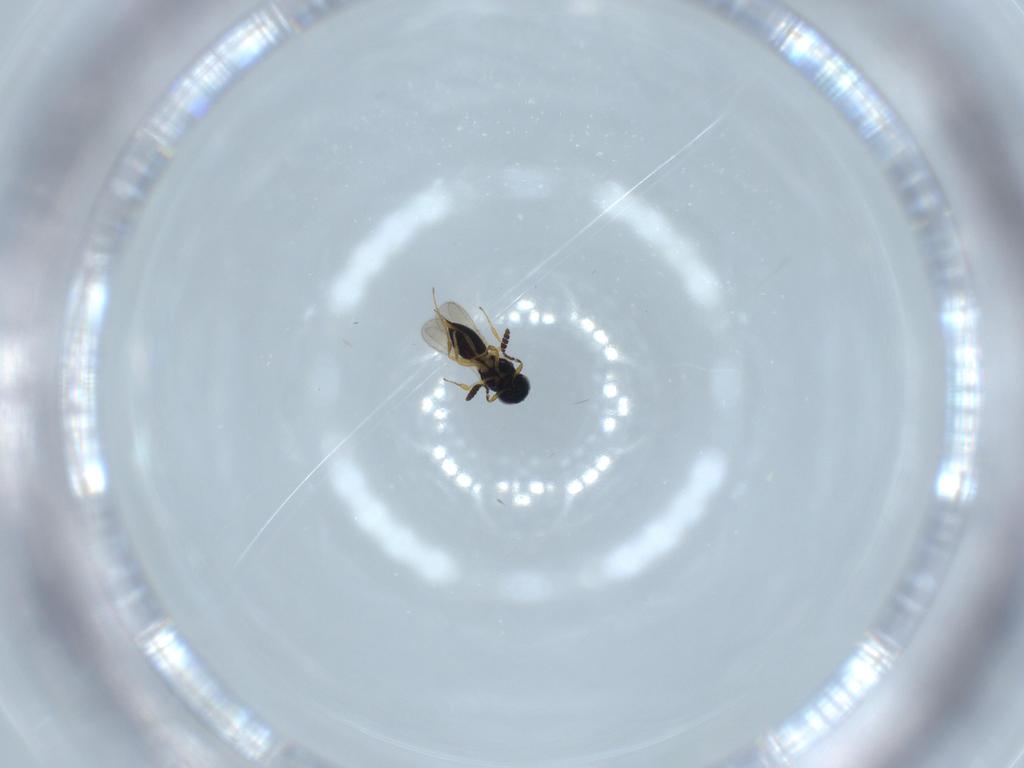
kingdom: Animalia
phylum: Arthropoda
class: Insecta
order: Hymenoptera
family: Scelionidae
